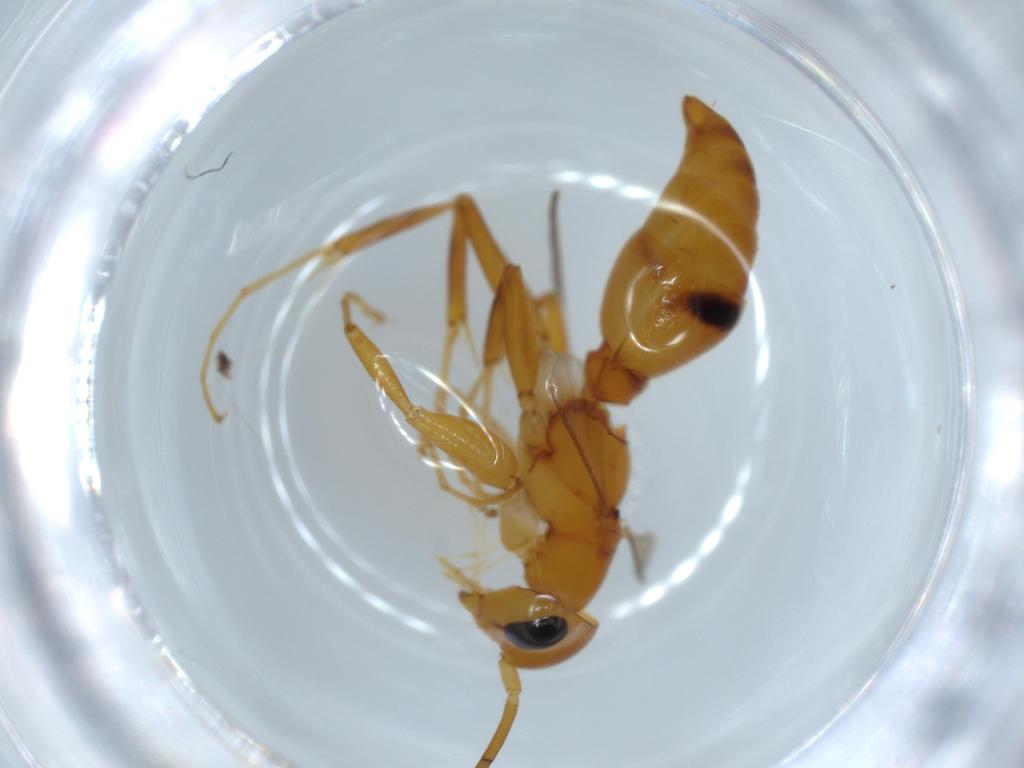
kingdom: Animalia
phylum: Arthropoda
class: Insecta
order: Hymenoptera
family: Rhopalosomatidae
